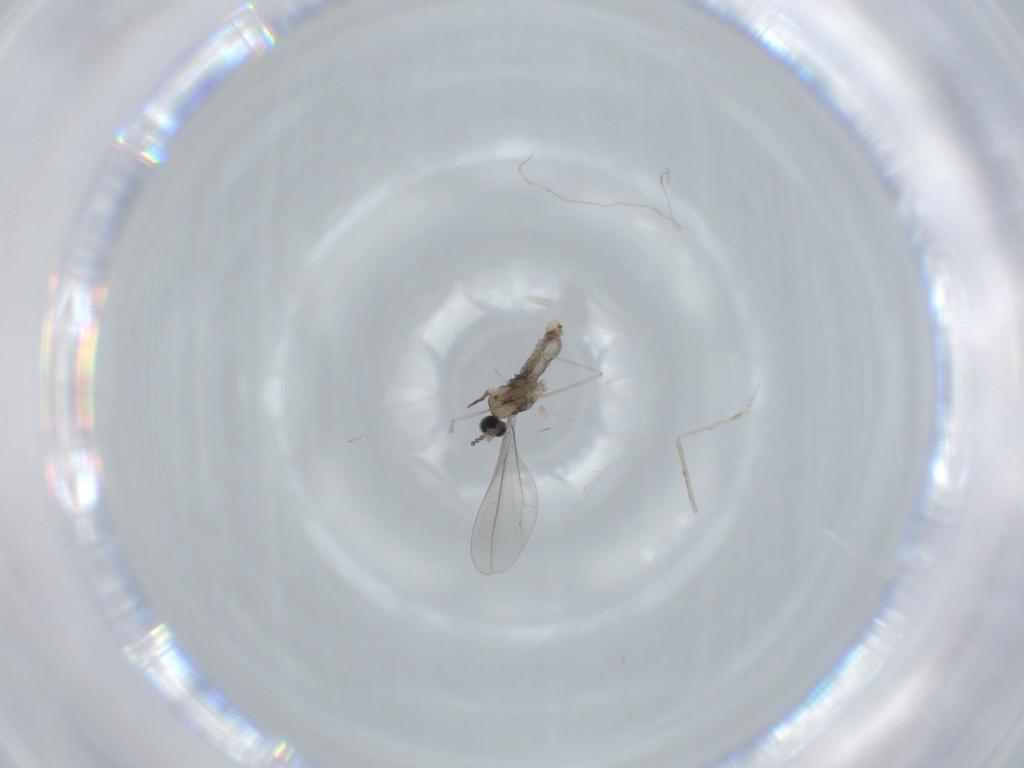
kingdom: Animalia
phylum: Arthropoda
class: Insecta
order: Diptera
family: Cecidomyiidae
